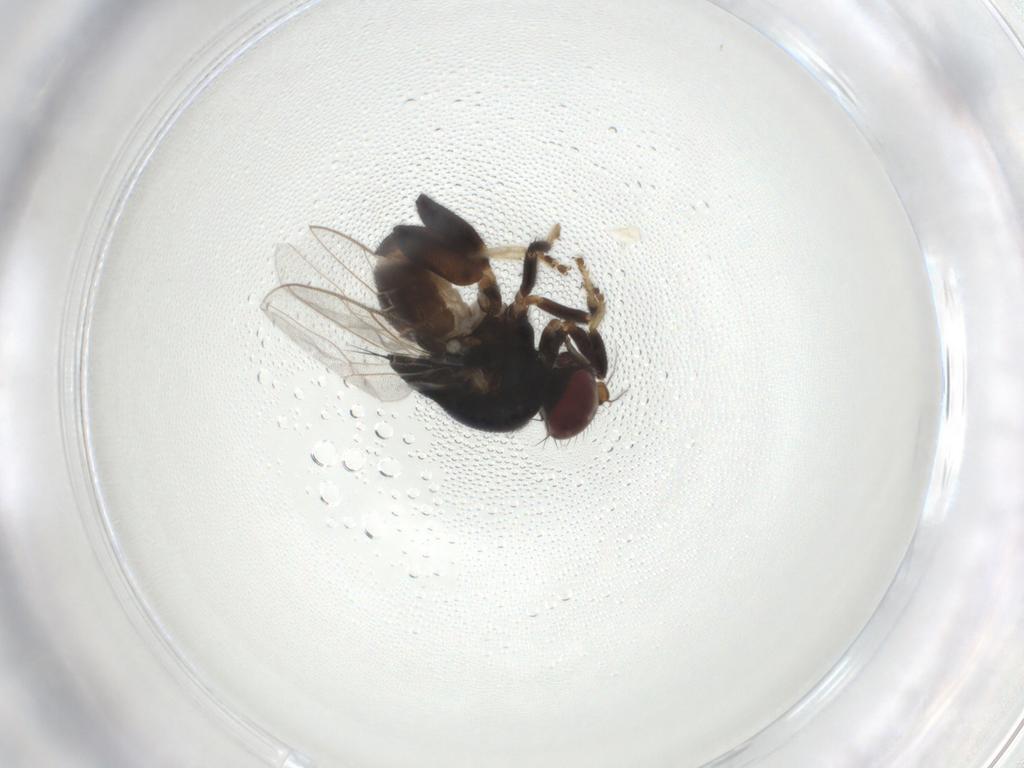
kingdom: Animalia
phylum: Arthropoda
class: Insecta
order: Diptera
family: Chloropidae
